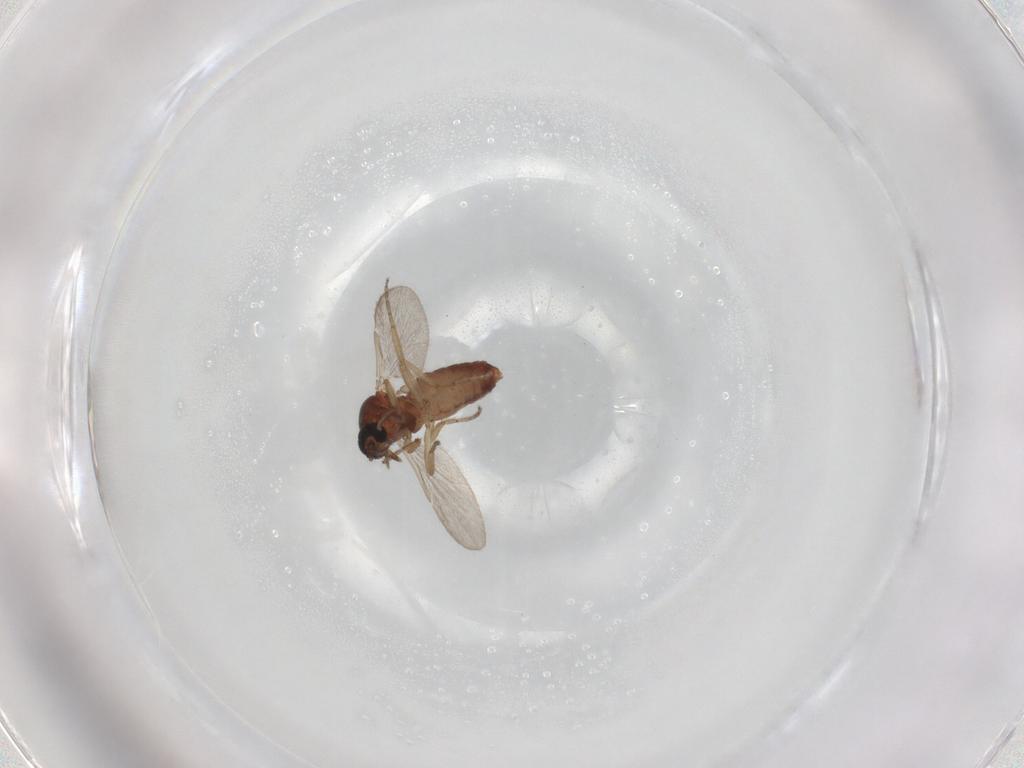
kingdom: Animalia
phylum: Arthropoda
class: Insecta
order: Diptera
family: Ceratopogonidae
